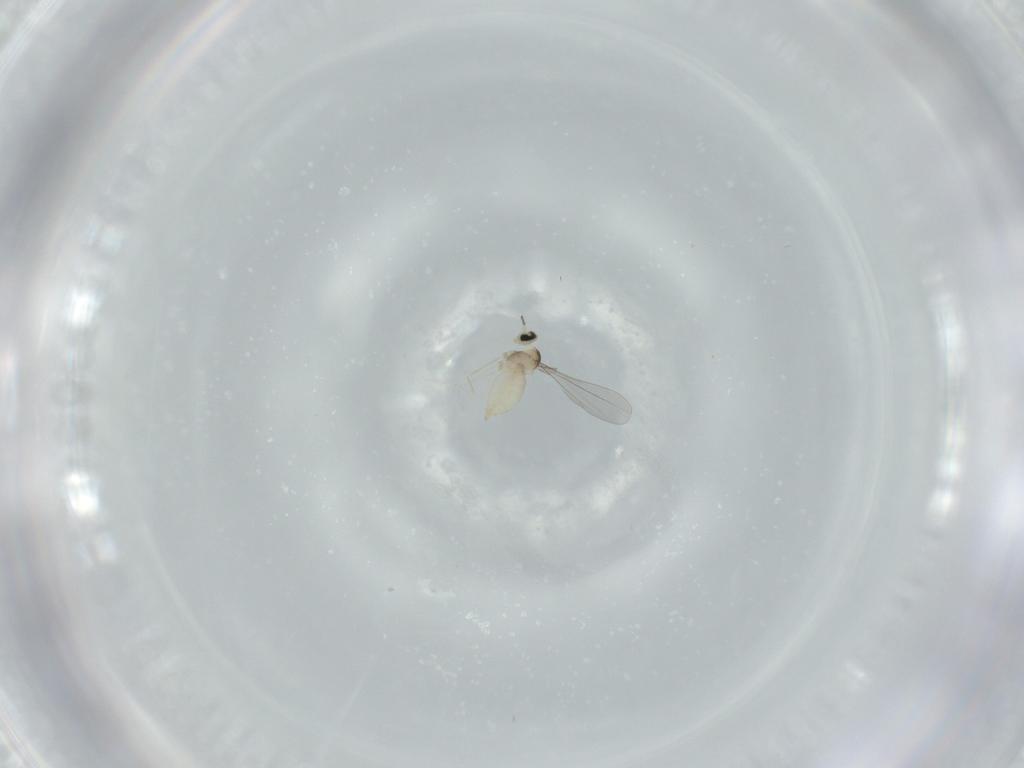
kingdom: Animalia
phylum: Arthropoda
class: Insecta
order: Diptera
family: Cecidomyiidae
